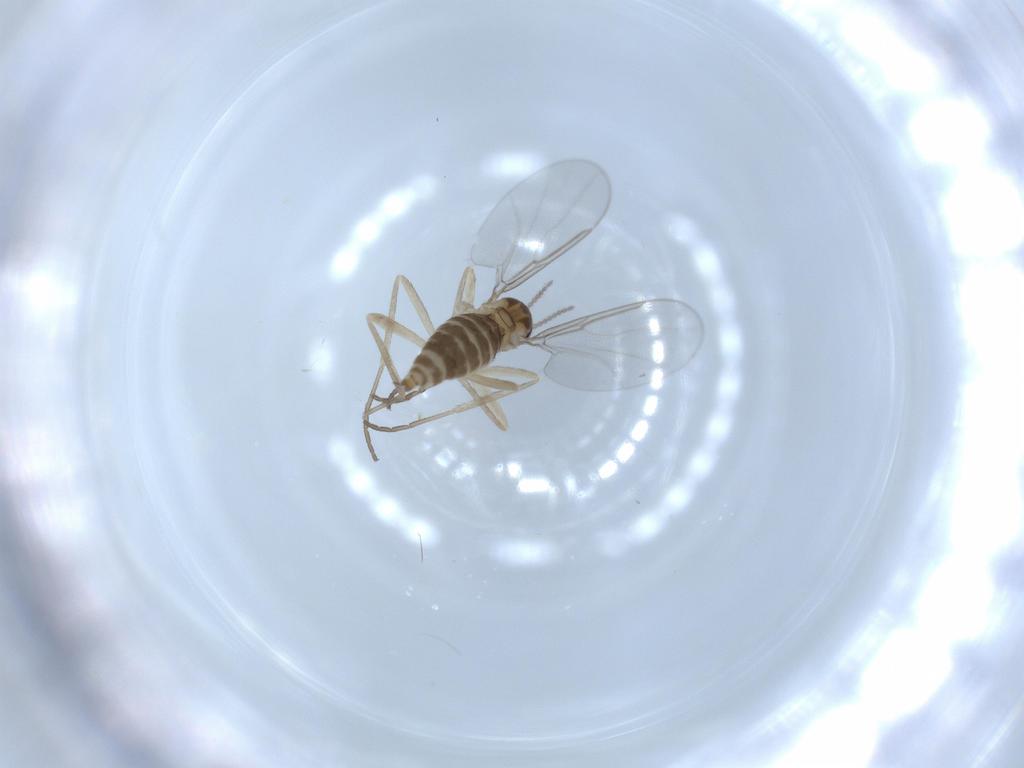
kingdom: Animalia
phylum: Arthropoda
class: Insecta
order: Diptera
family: Cecidomyiidae
